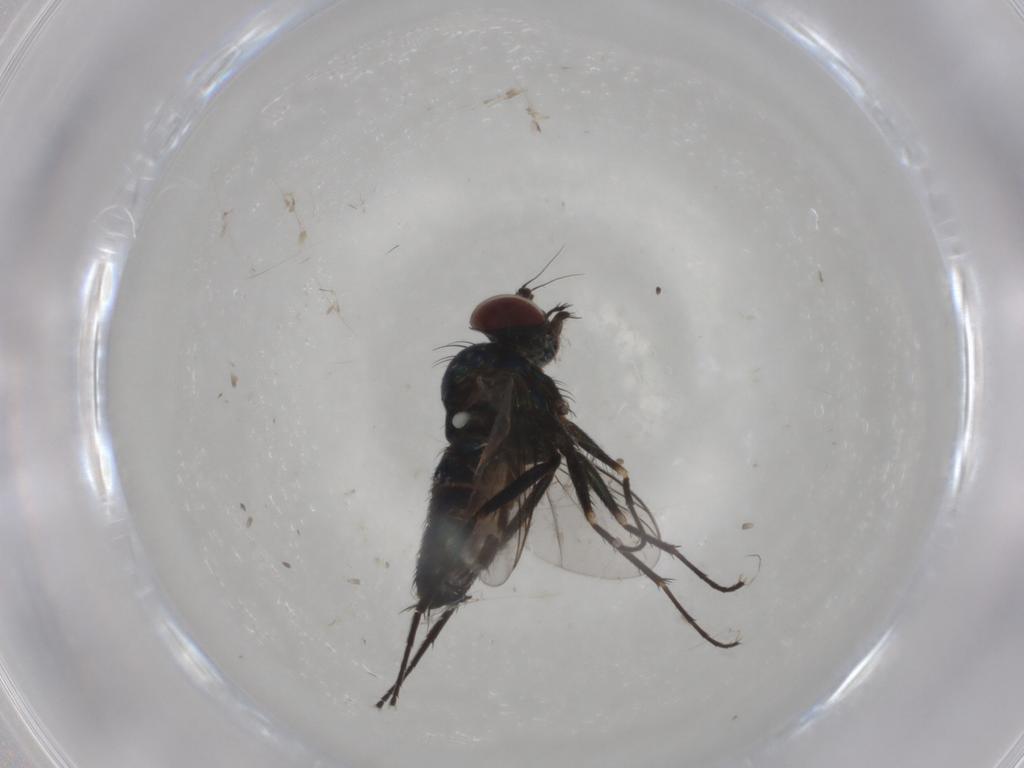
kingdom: Animalia
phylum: Arthropoda
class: Insecta
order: Diptera
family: Dolichopodidae
